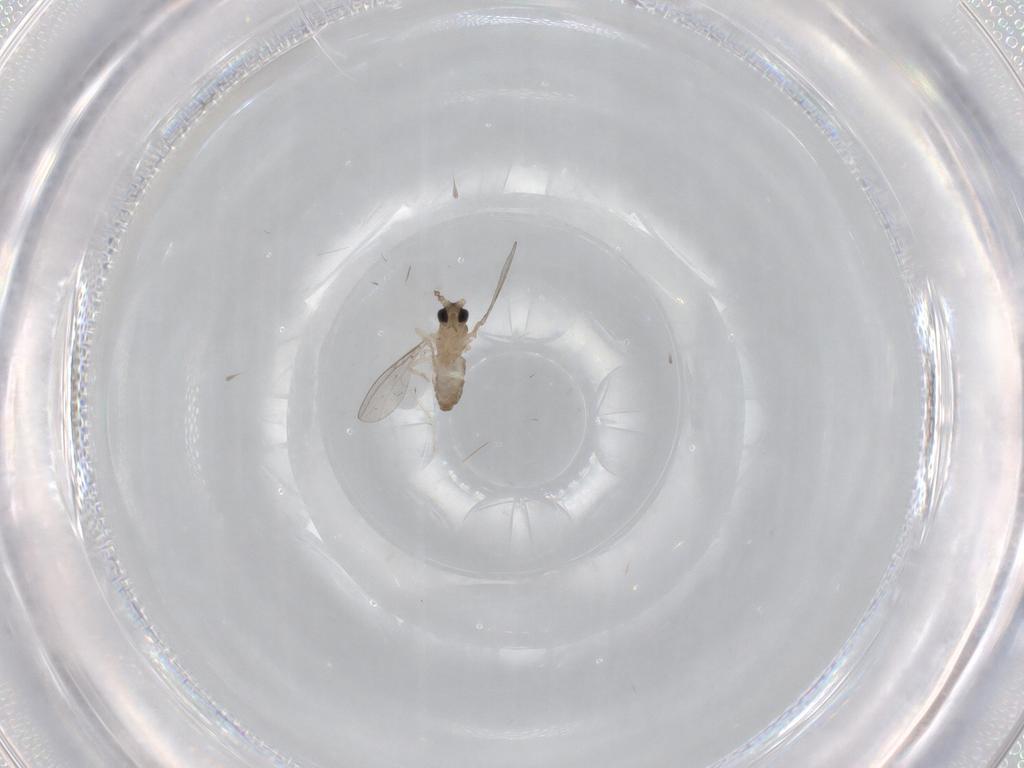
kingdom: Animalia
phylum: Arthropoda
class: Insecta
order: Diptera
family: Cecidomyiidae
